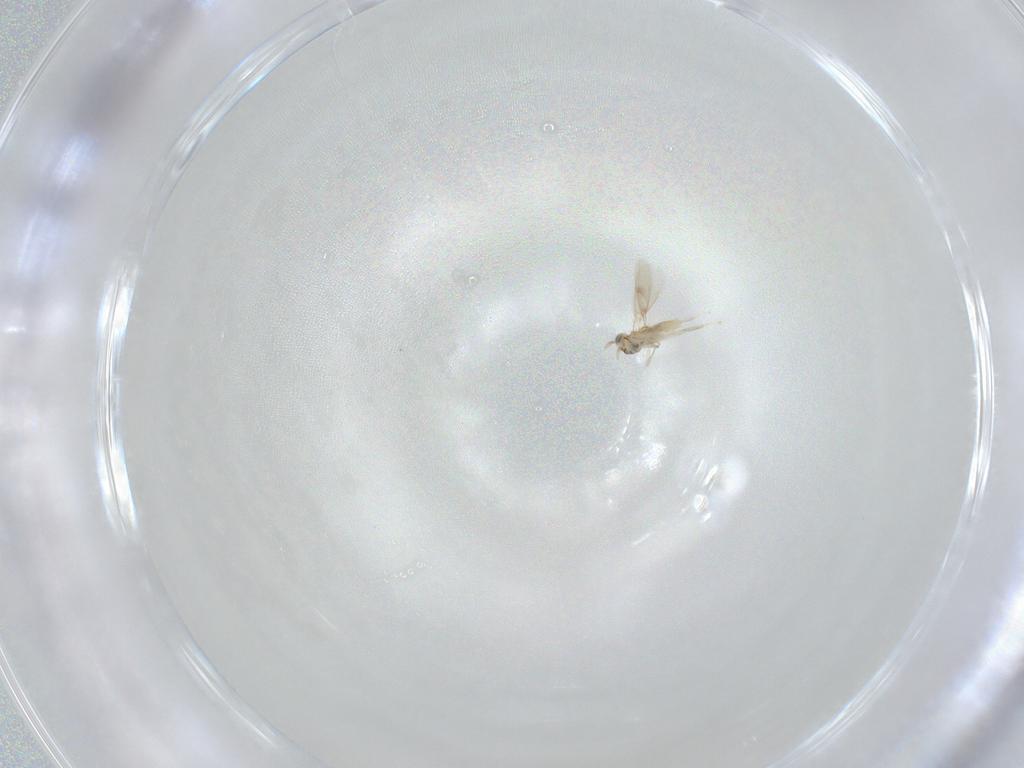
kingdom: Animalia
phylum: Arthropoda
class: Insecta
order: Hymenoptera
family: Aphelinidae
